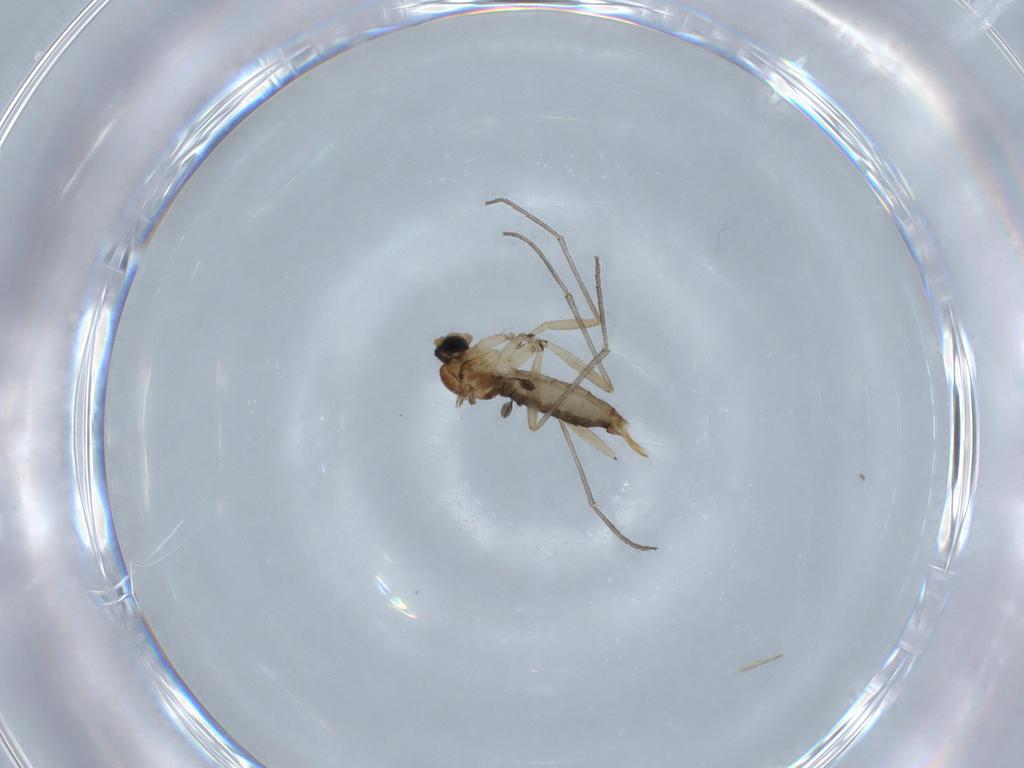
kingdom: Animalia
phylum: Arthropoda
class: Insecta
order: Diptera
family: Sciaridae
